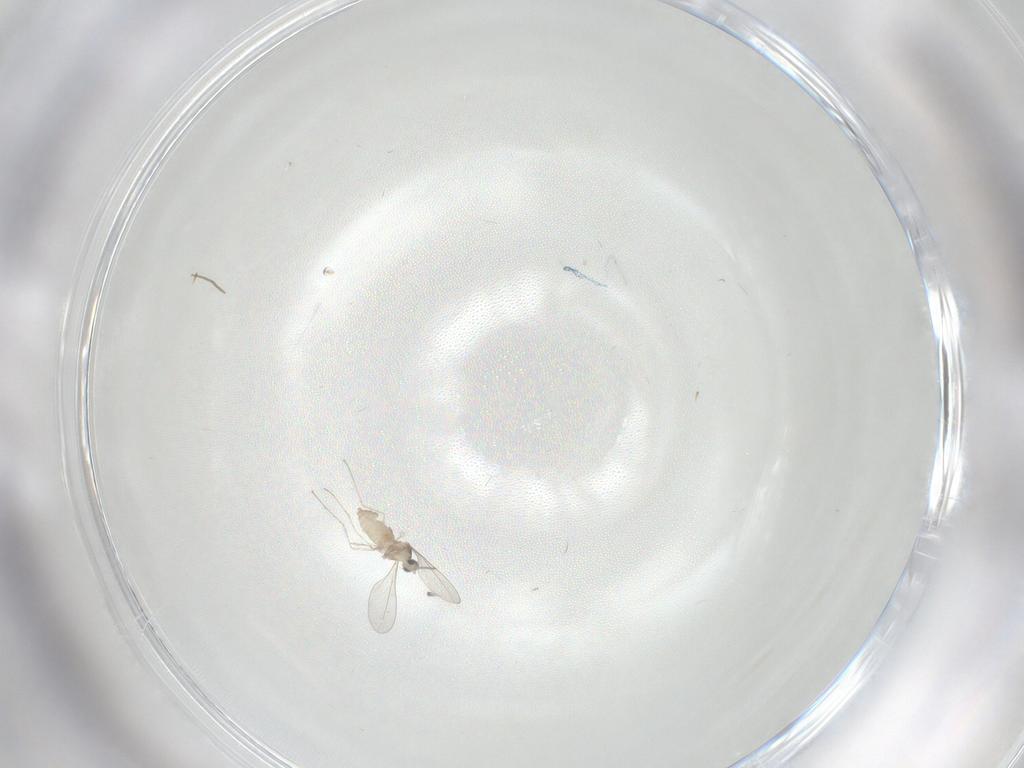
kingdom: Animalia
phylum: Arthropoda
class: Insecta
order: Diptera
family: Cecidomyiidae
